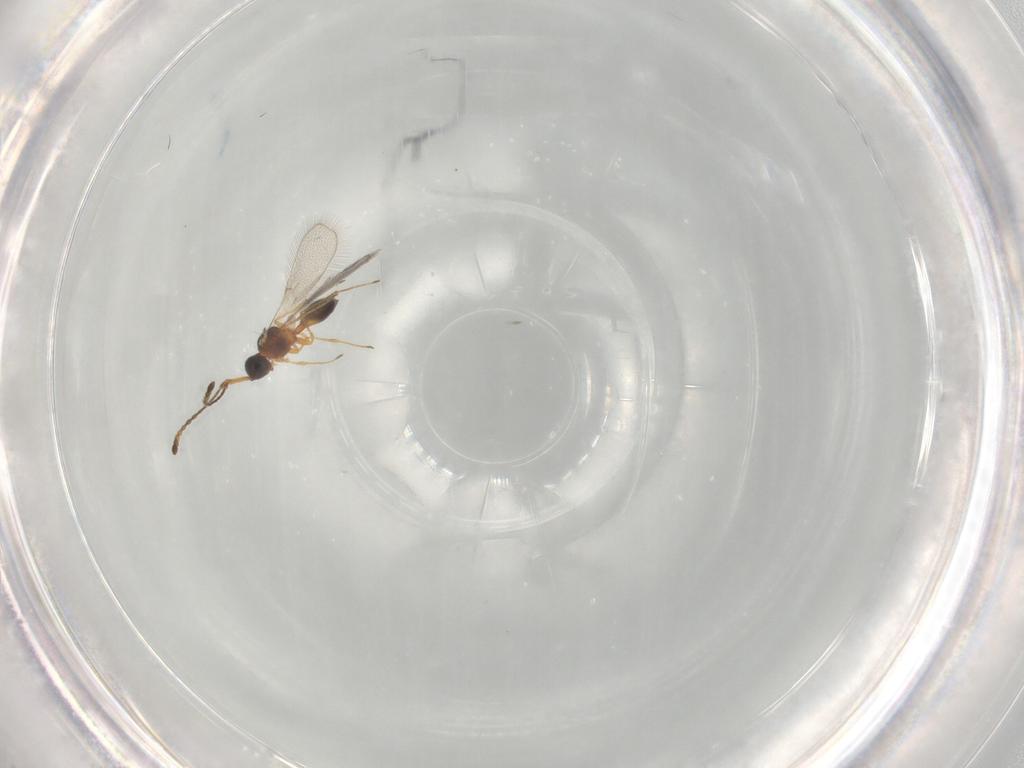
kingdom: Animalia
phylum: Arthropoda
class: Insecta
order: Hymenoptera
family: Diapriidae
